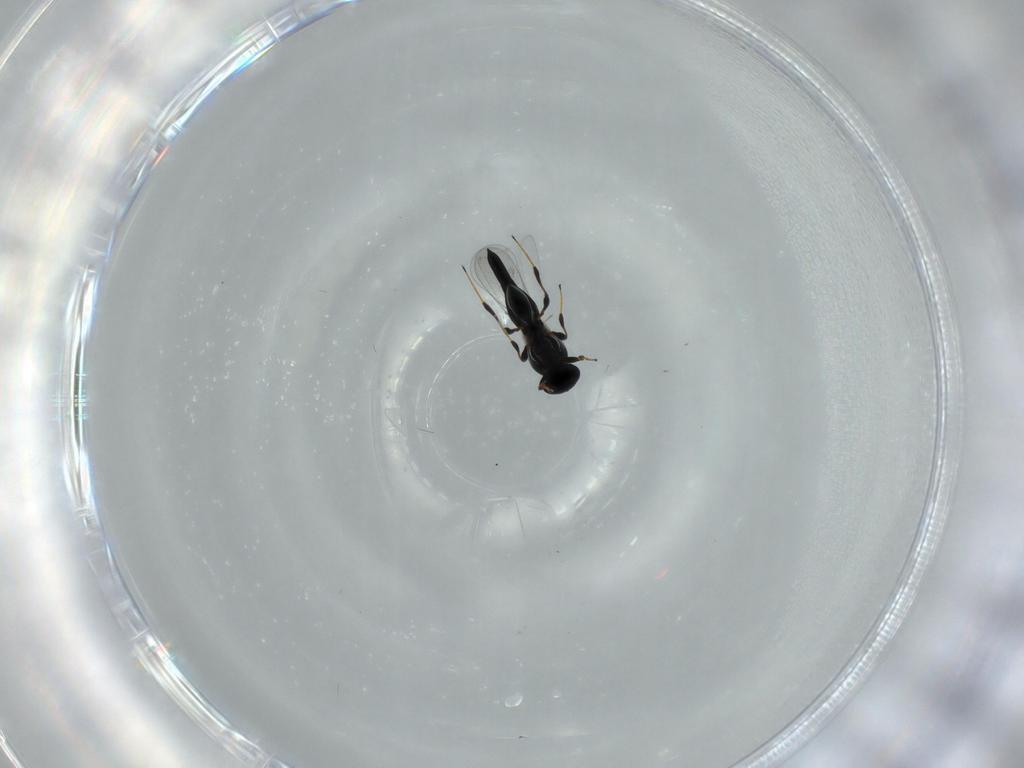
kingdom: Animalia
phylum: Arthropoda
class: Insecta
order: Hymenoptera
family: Platygastridae
